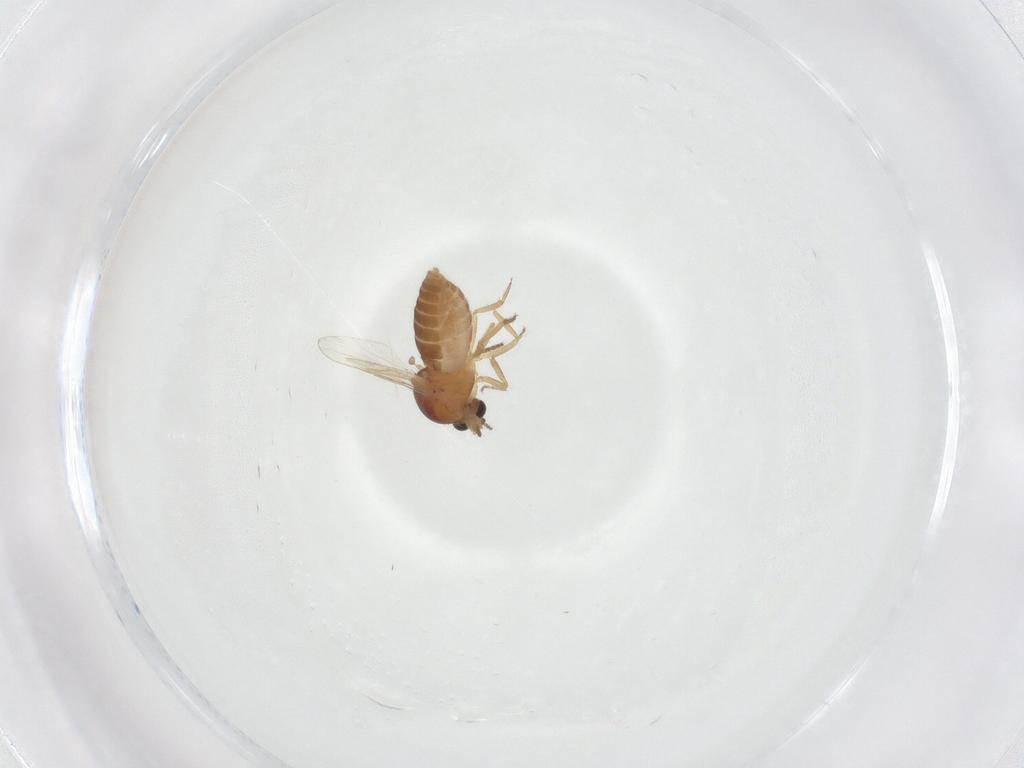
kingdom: Animalia
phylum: Arthropoda
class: Insecta
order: Diptera
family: Ceratopogonidae
